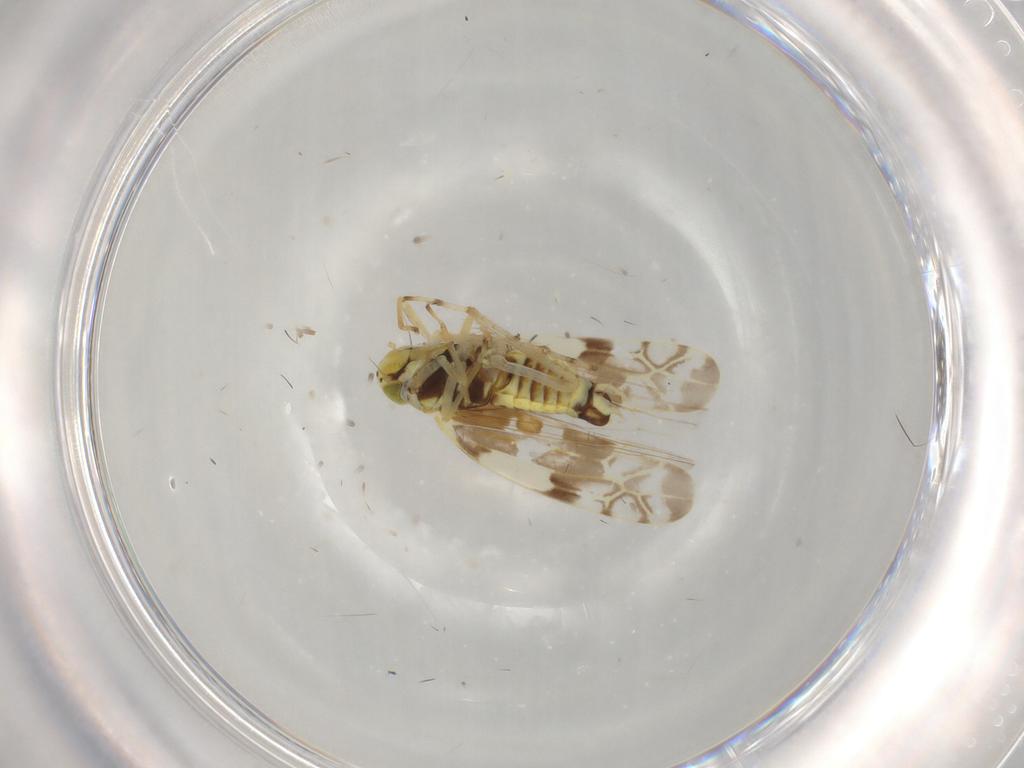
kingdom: Animalia
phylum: Arthropoda
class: Insecta
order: Hemiptera
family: Cicadellidae
